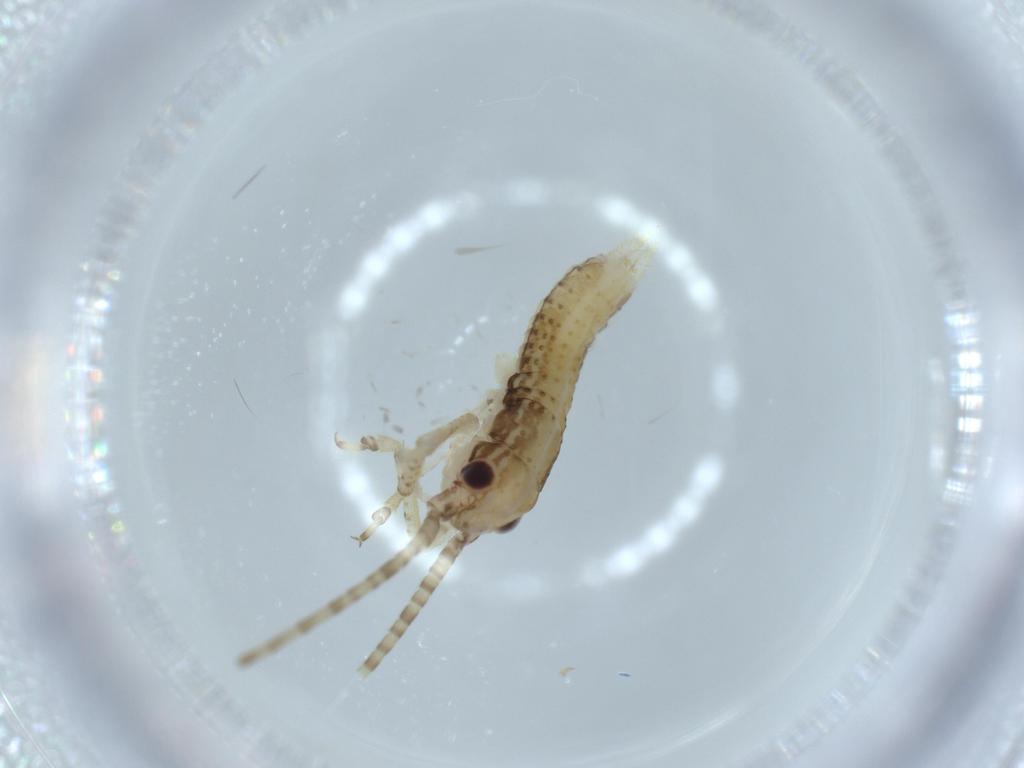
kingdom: Animalia
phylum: Arthropoda
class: Insecta
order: Orthoptera
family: Gryllidae
